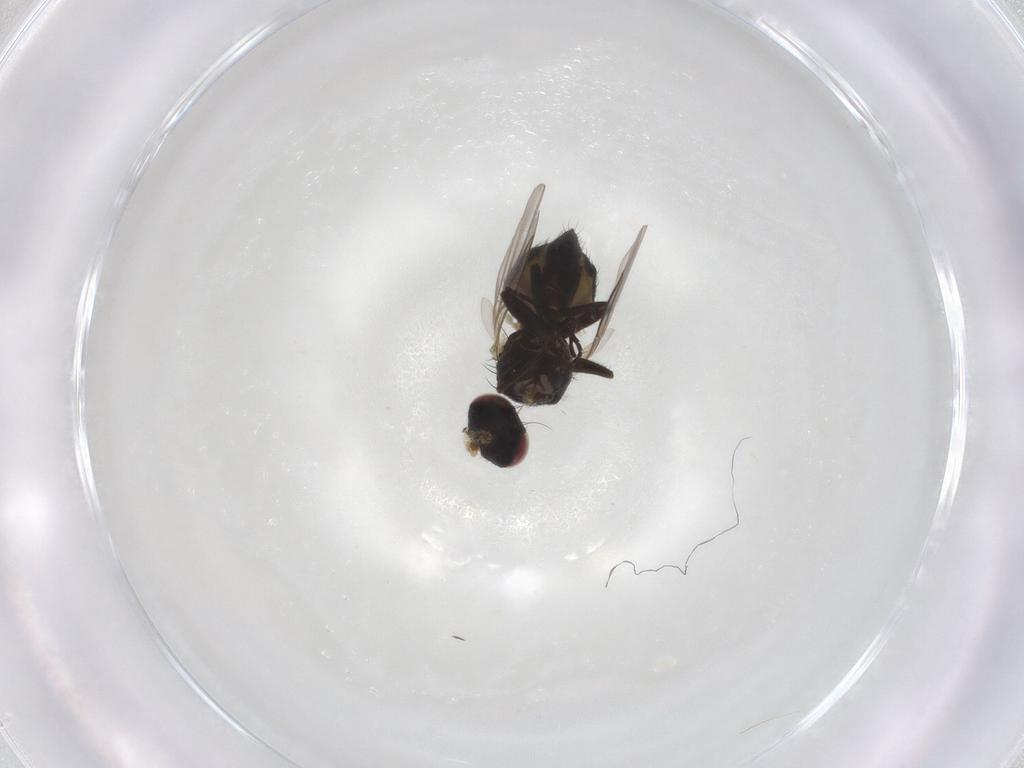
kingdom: Animalia
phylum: Arthropoda
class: Insecta
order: Diptera
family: Agromyzidae
